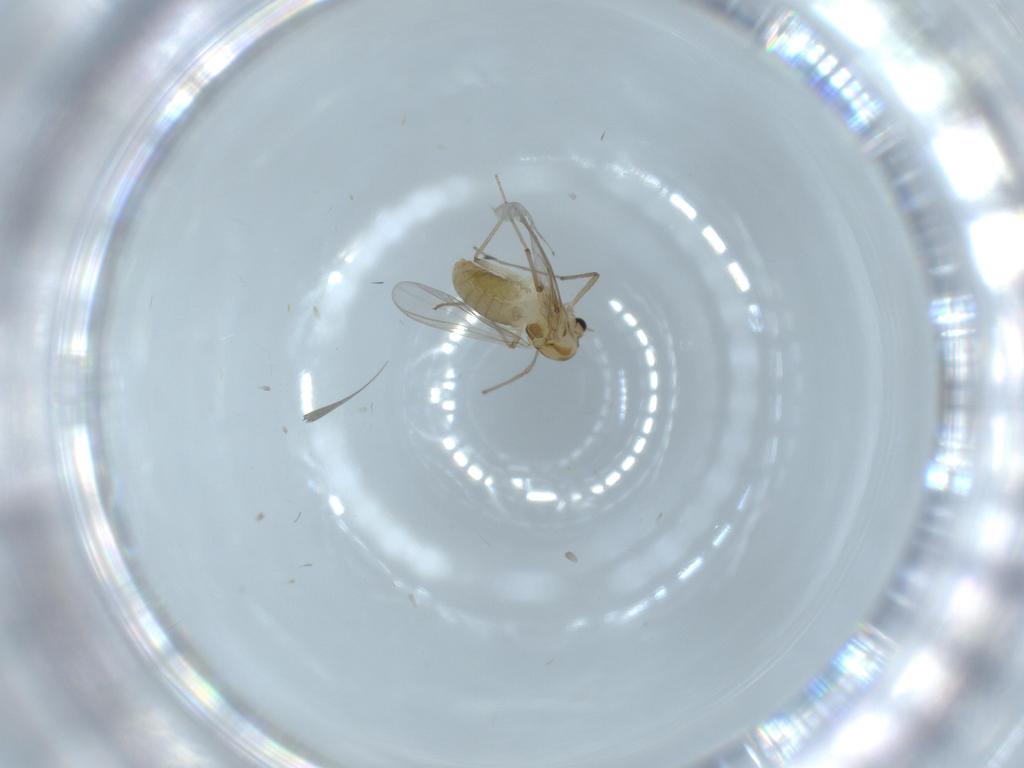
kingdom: Animalia
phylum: Arthropoda
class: Insecta
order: Diptera
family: Chironomidae
